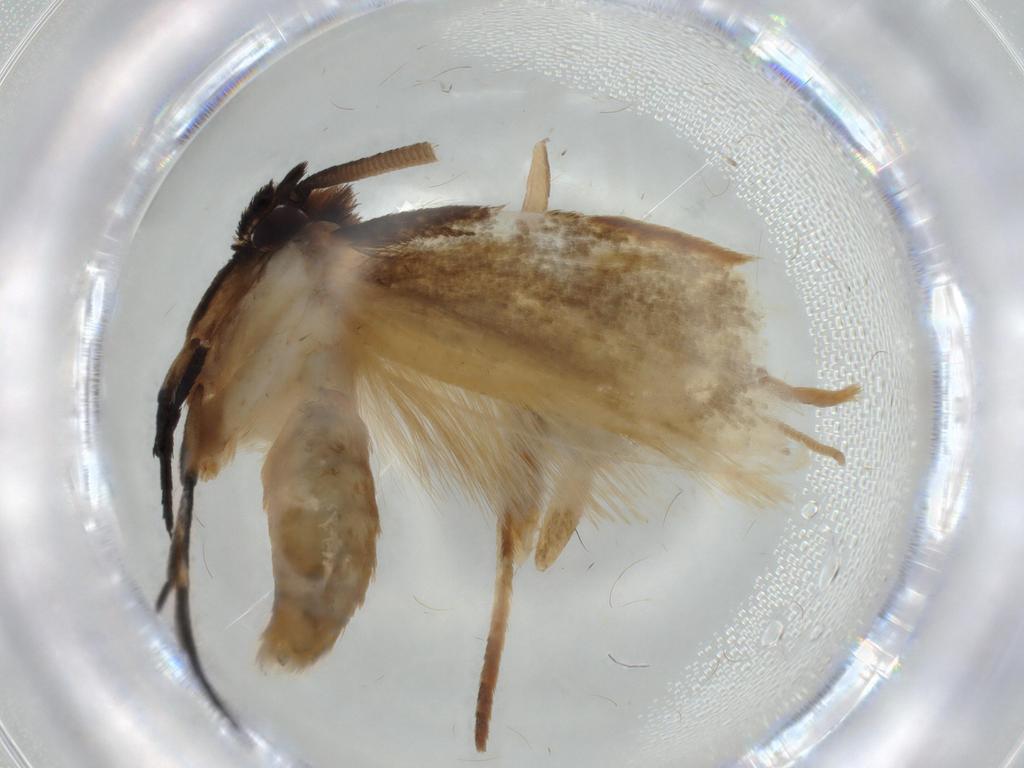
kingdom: Animalia
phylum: Arthropoda
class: Insecta
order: Lepidoptera
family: Tineidae
